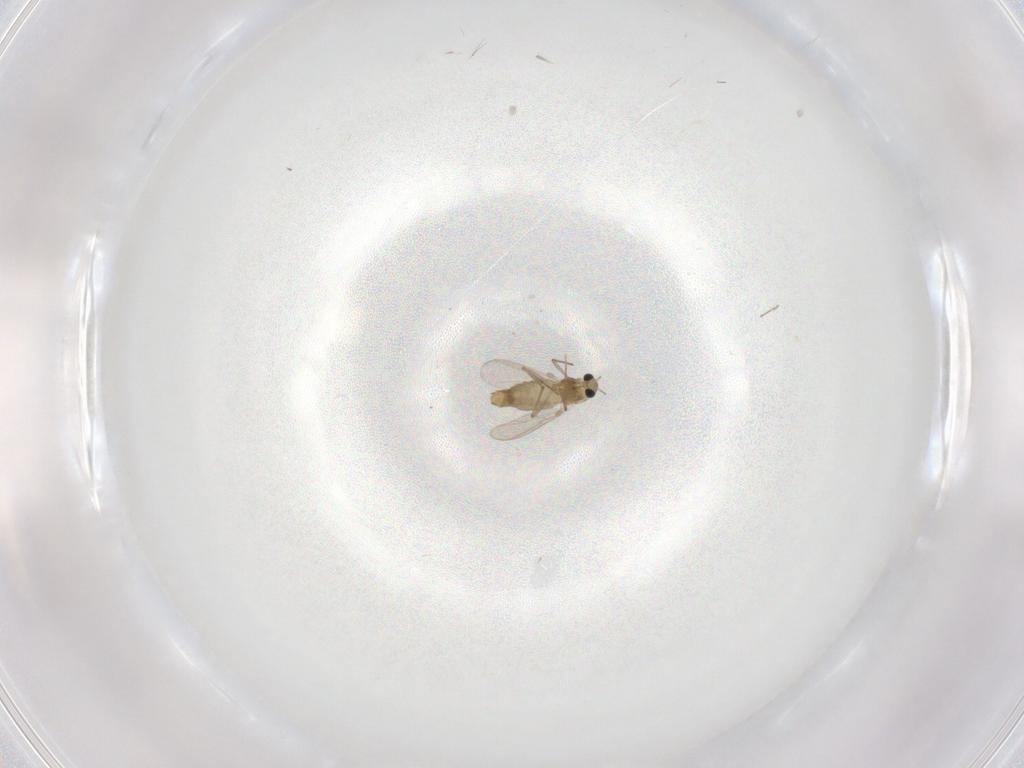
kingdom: Animalia
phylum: Arthropoda
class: Insecta
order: Diptera
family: Chironomidae
